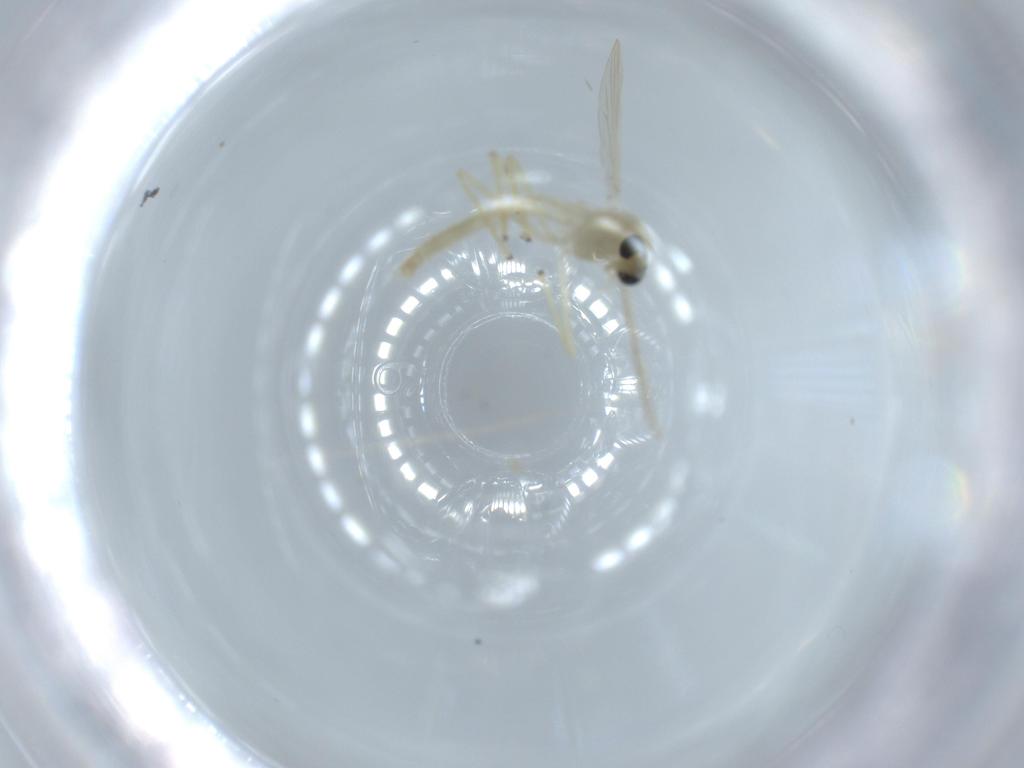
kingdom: Animalia
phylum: Arthropoda
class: Insecta
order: Diptera
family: Chironomidae
